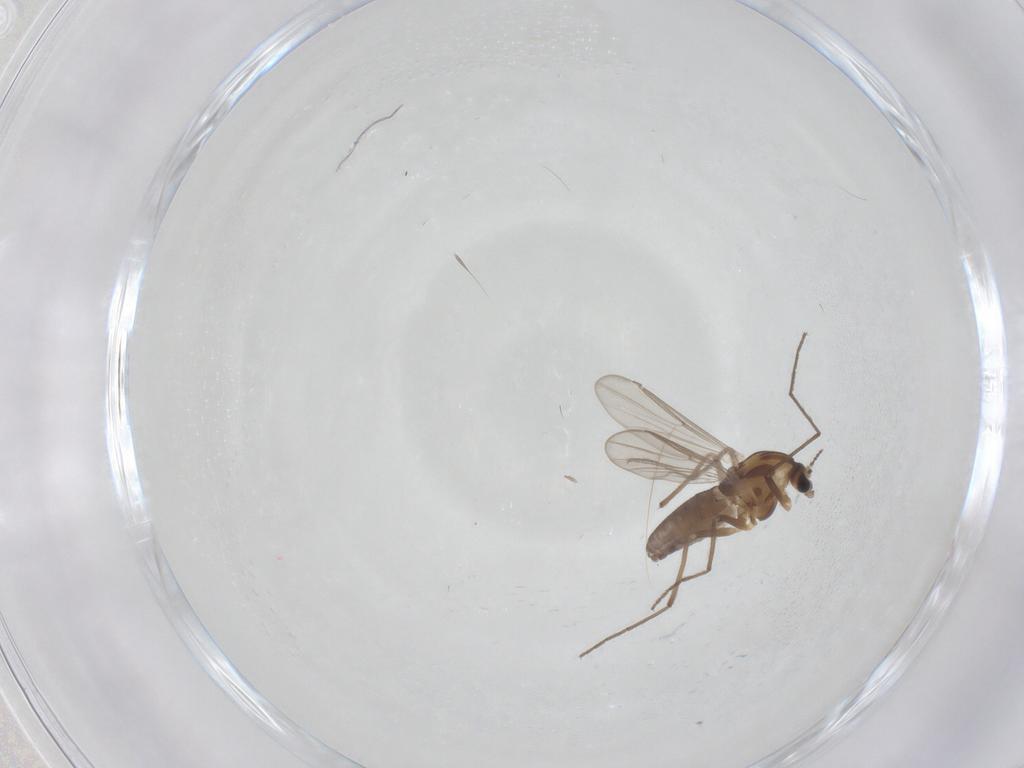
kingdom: Animalia
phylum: Arthropoda
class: Insecta
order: Diptera
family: Chironomidae
